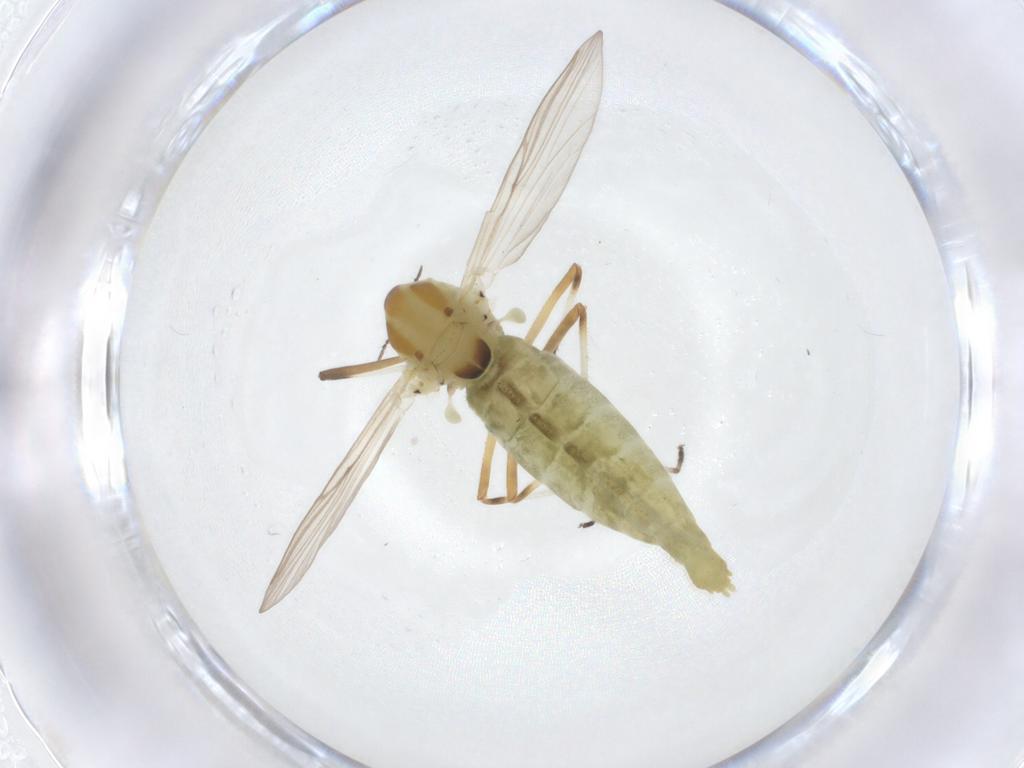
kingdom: Animalia
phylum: Arthropoda
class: Insecta
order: Diptera
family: Chironomidae
